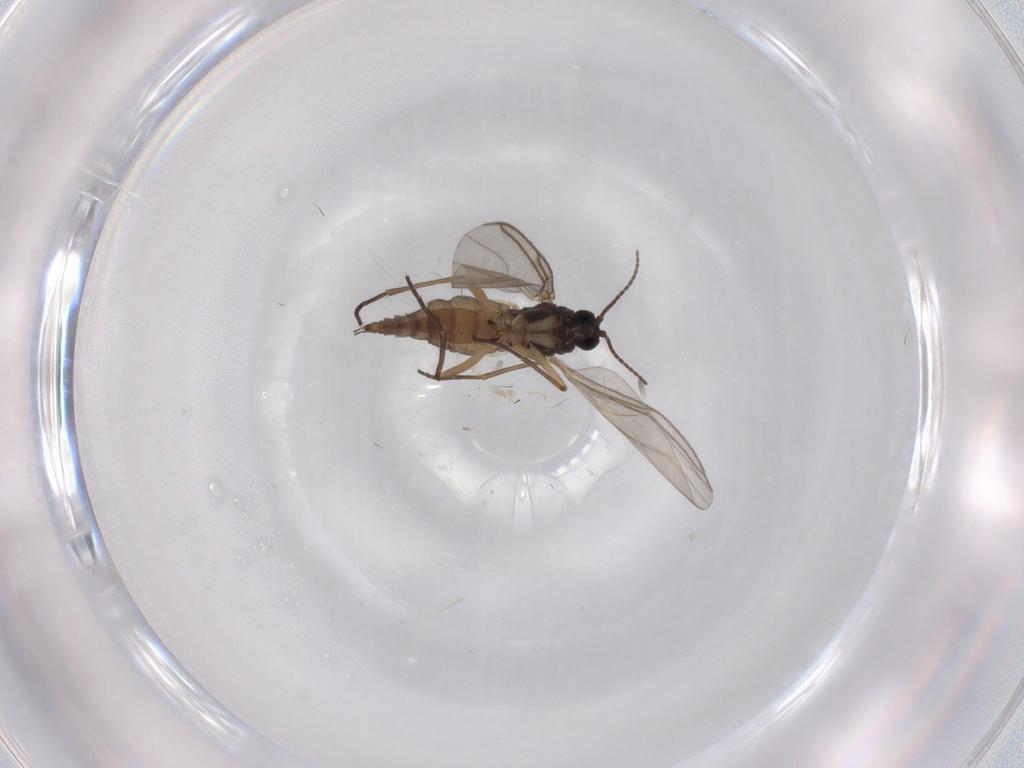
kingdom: Animalia
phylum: Arthropoda
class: Insecta
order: Diptera
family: Sciaridae
